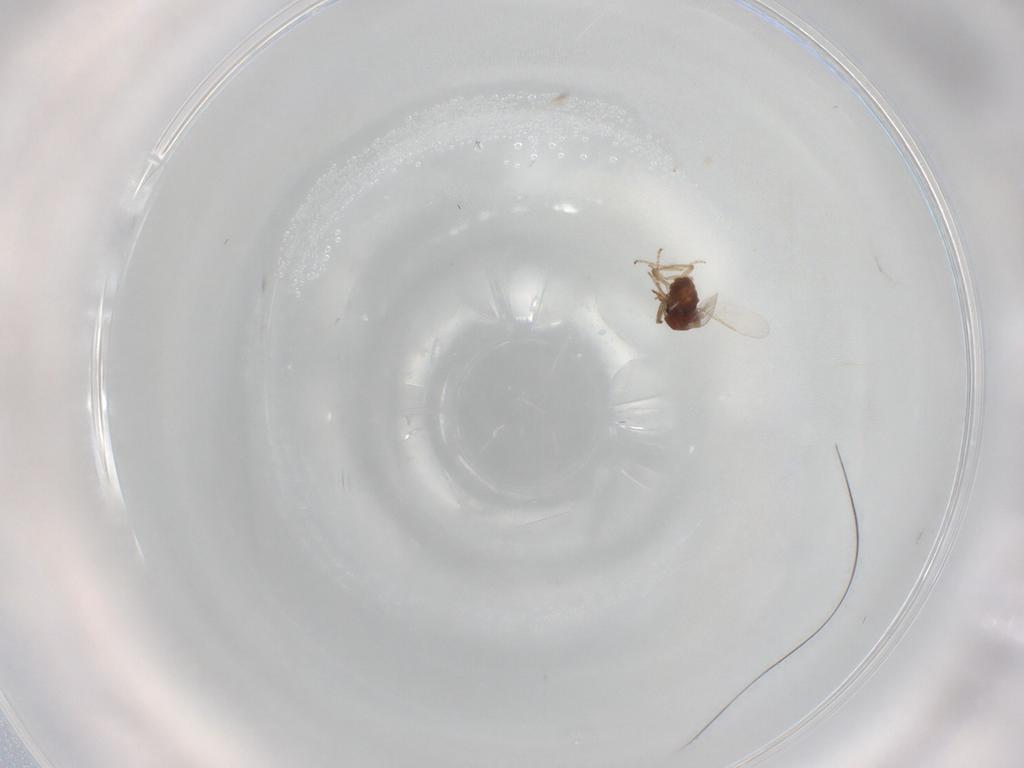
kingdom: Animalia
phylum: Arthropoda
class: Insecta
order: Diptera
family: Ceratopogonidae
